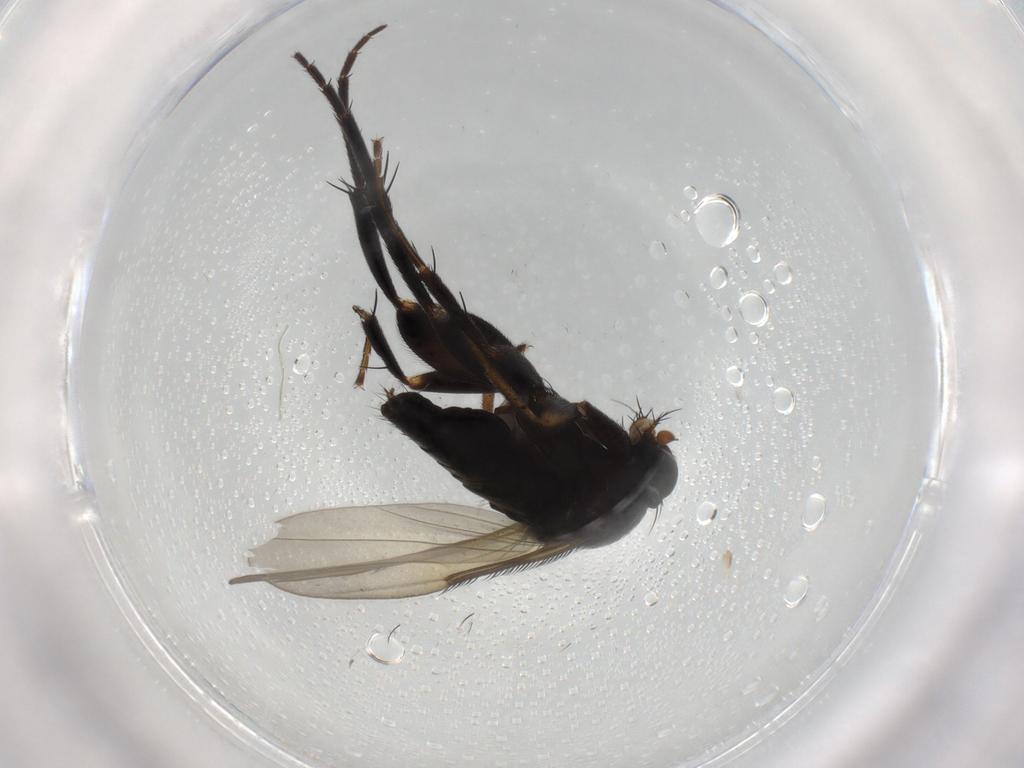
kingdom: Animalia
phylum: Arthropoda
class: Insecta
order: Diptera
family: Phoridae
